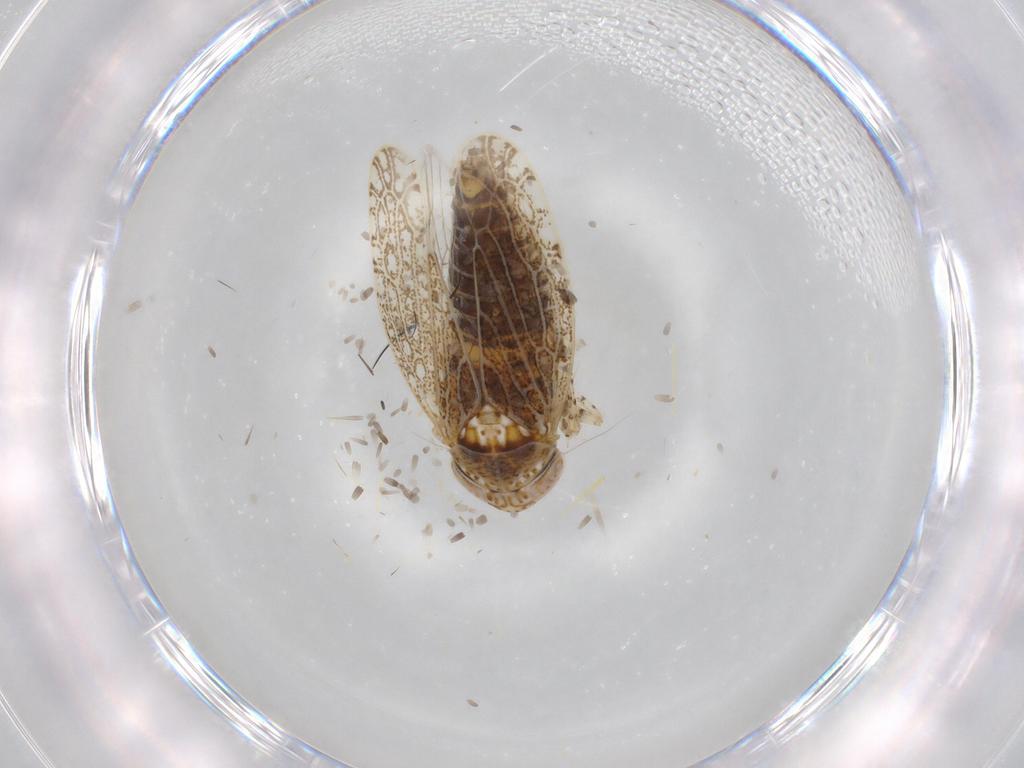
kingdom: Animalia
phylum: Arthropoda
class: Insecta
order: Hemiptera
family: Cicadellidae
